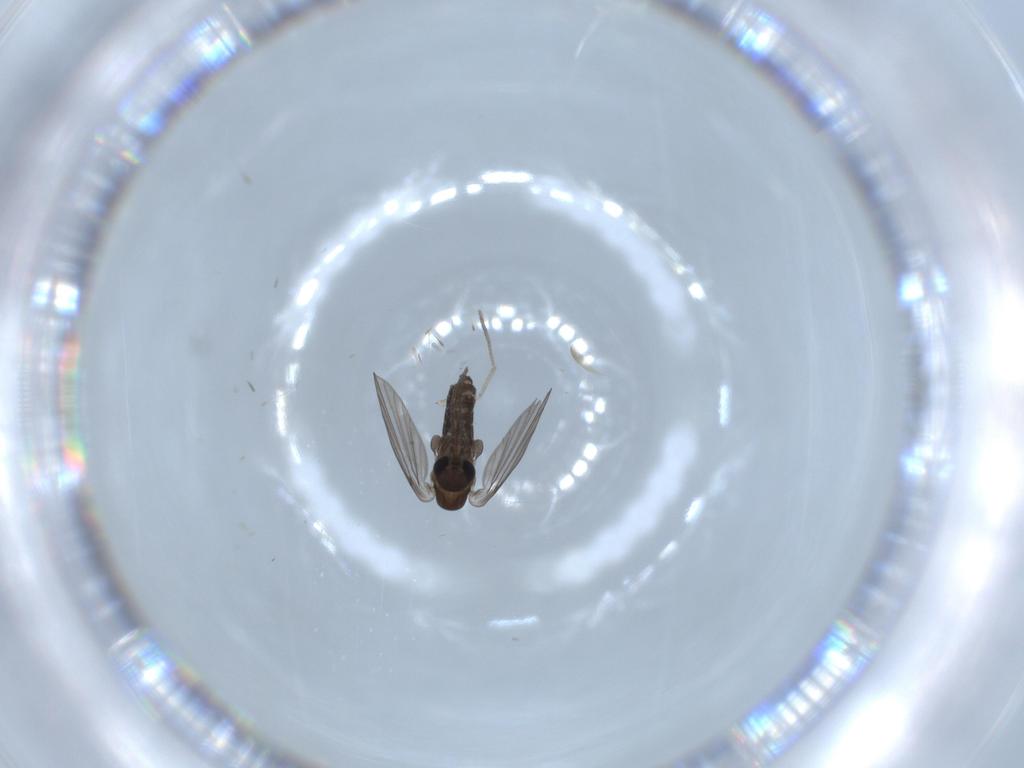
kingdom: Animalia
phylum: Arthropoda
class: Insecta
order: Diptera
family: Psychodidae
